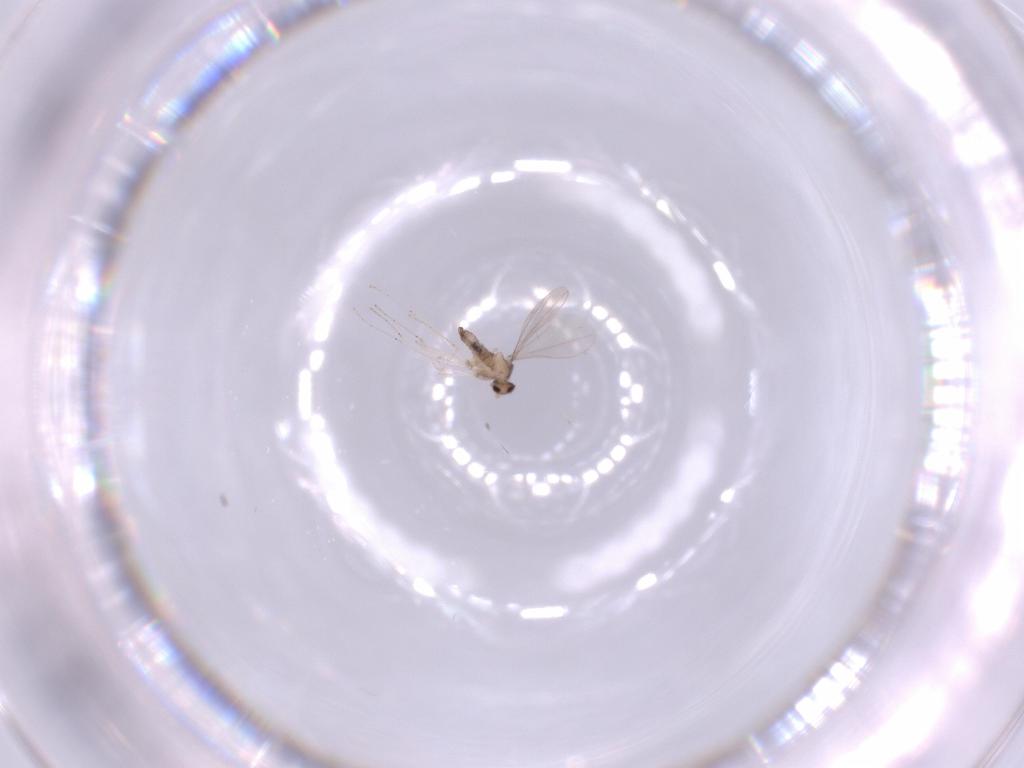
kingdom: Animalia
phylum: Arthropoda
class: Insecta
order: Diptera
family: Cecidomyiidae
